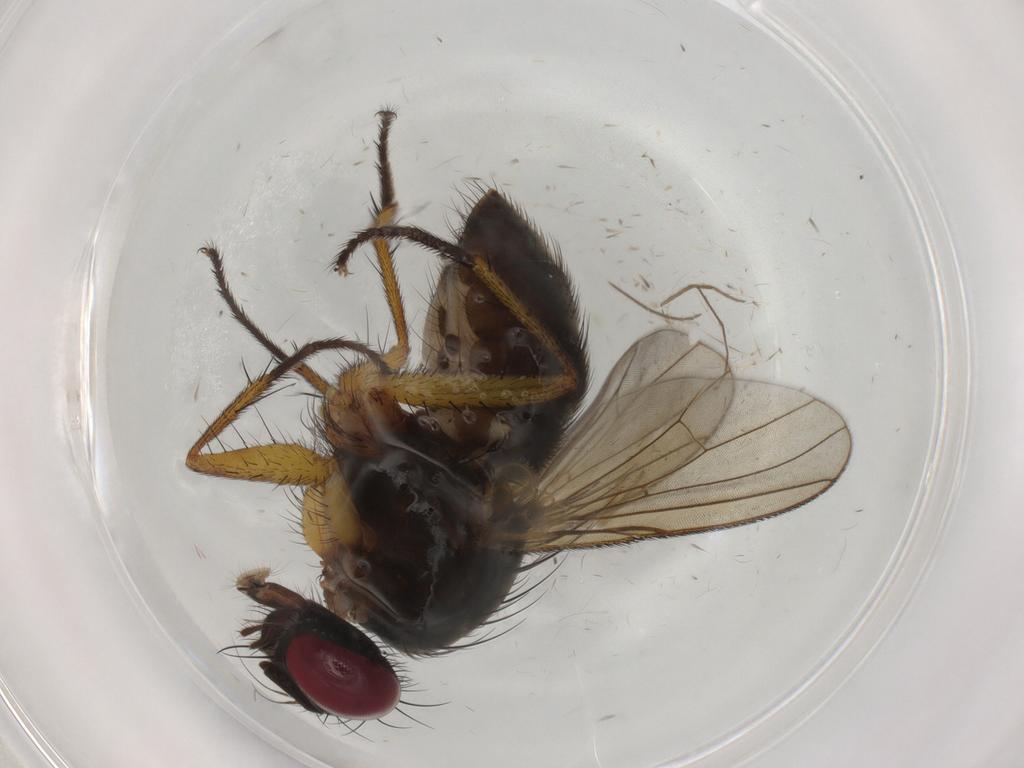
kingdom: Animalia
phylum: Arthropoda
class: Insecta
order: Diptera
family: Muscidae
